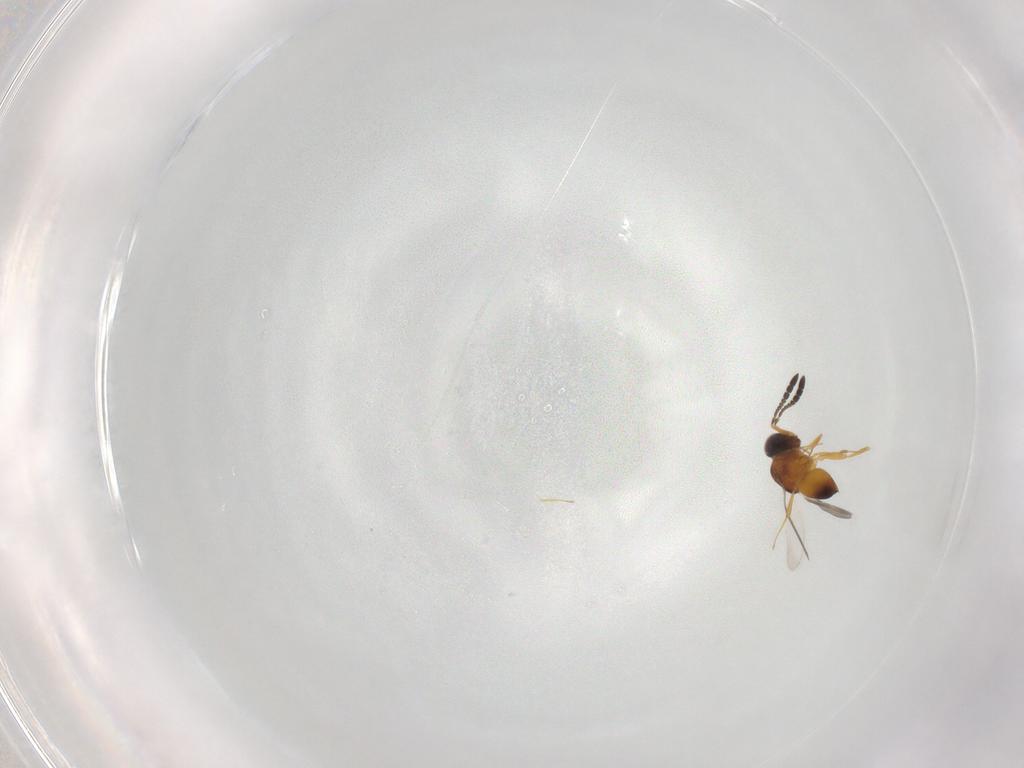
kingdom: Animalia
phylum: Arthropoda
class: Insecta
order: Hymenoptera
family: Ceraphronidae
